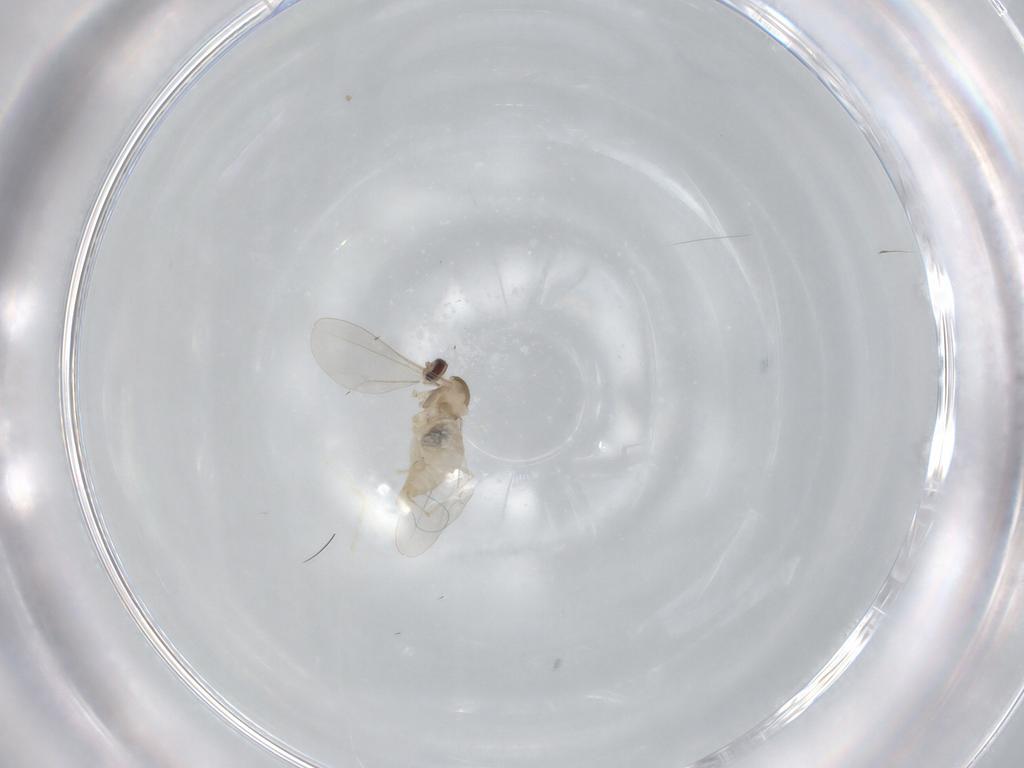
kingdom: Animalia
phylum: Arthropoda
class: Insecta
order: Diptera
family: Cecidomyiidae
